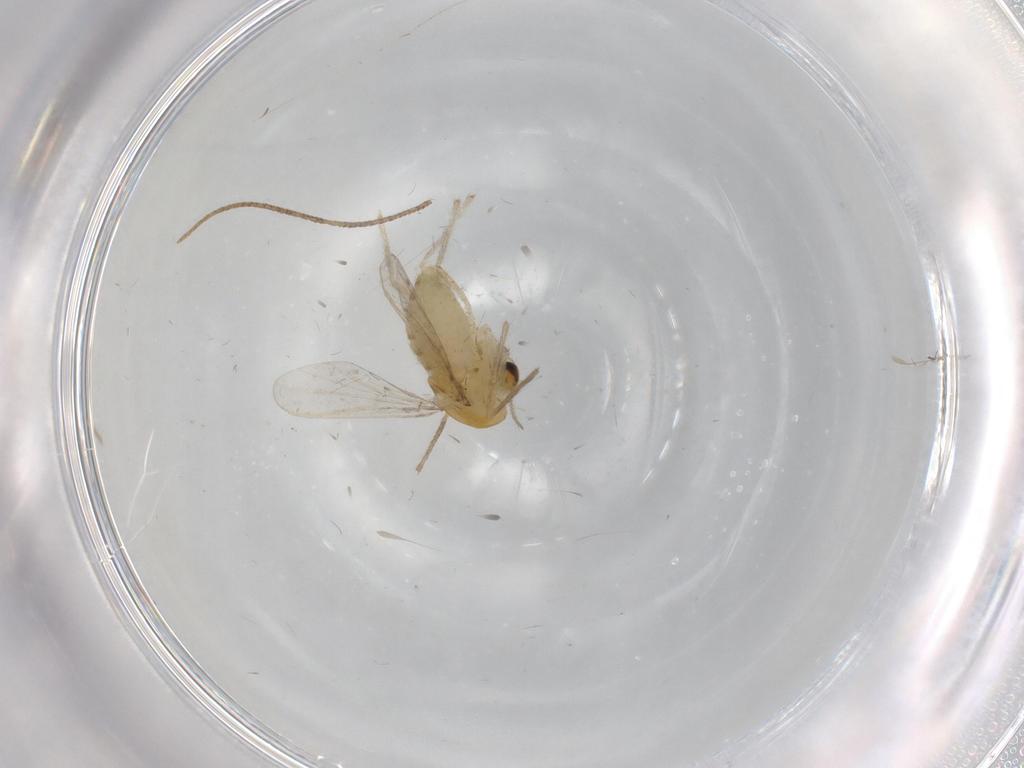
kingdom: Animalia
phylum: Arthropoda
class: Insecta
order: Diptera
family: Chironomidae
